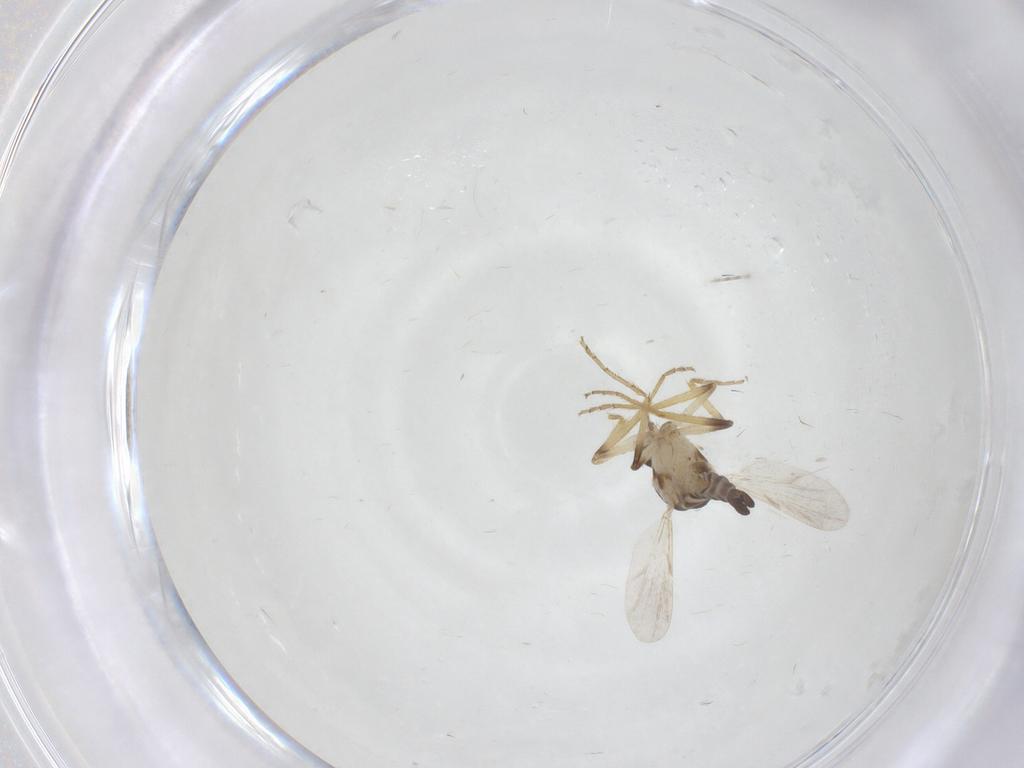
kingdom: Animalia
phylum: Arthropoda
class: Insecta
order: Diptera
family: Ceratopogonidae
